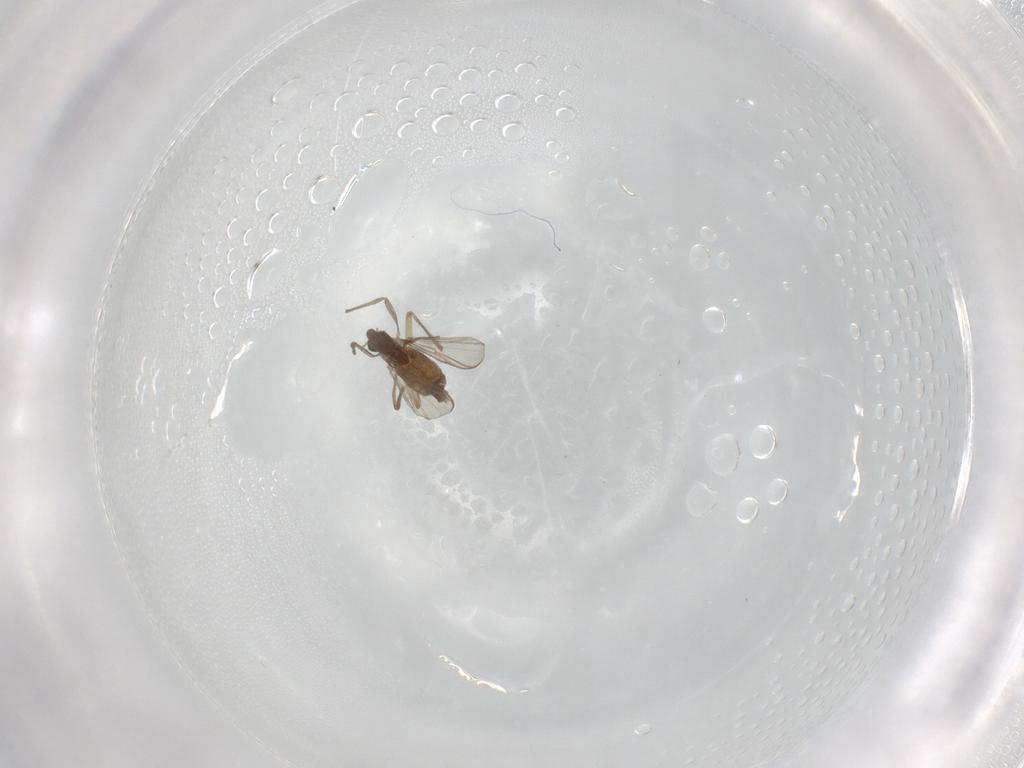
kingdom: Animalia
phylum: Arthropoda
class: Insecta
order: Diptera
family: Chironomidae
